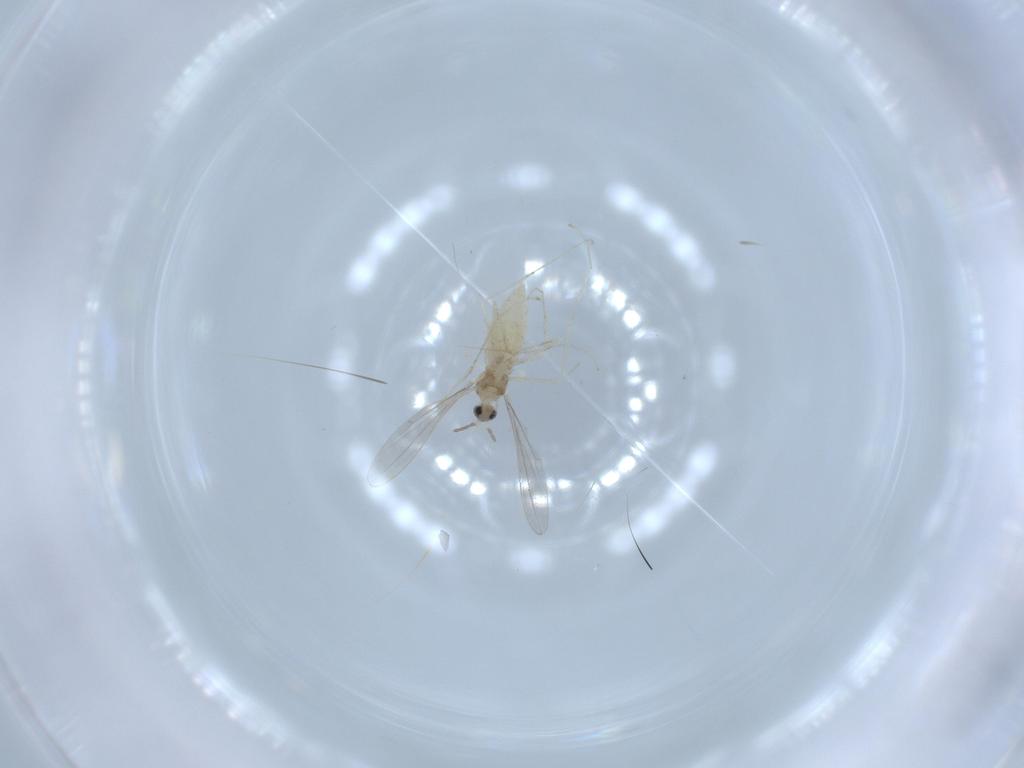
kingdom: Animalia
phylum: Arthropoda
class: Insecta
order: Diptera
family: Cecidomyiidae
